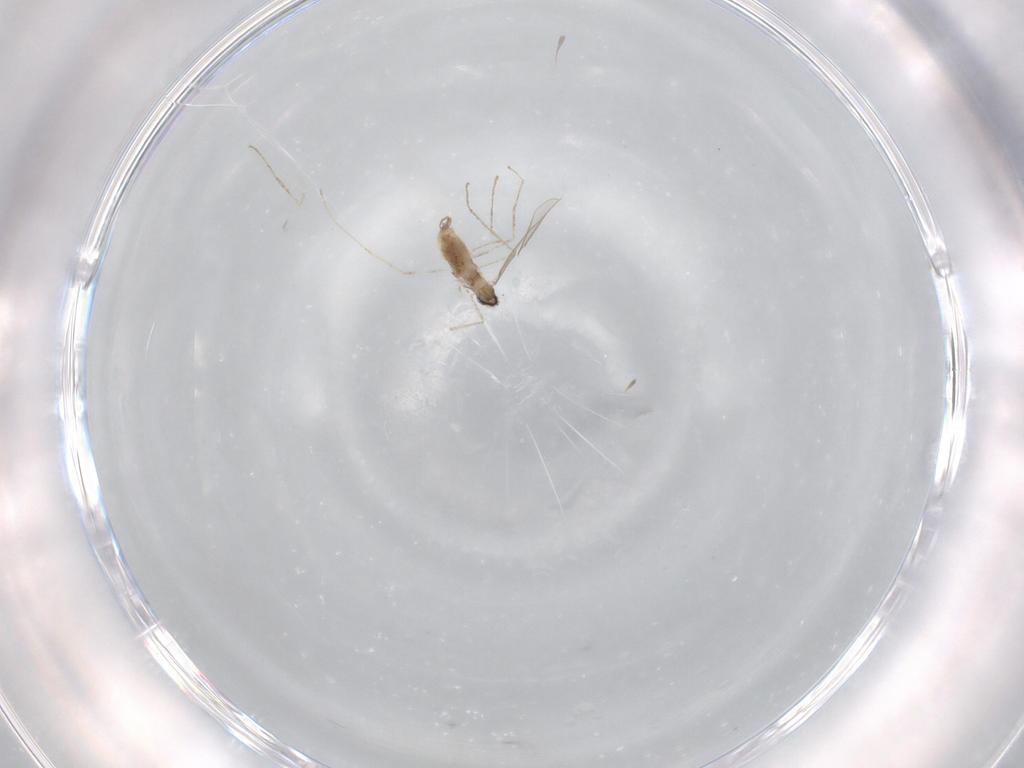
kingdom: Animalia
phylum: Arthropoda
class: Insecta
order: Diptera
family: Cecidomyiidae
